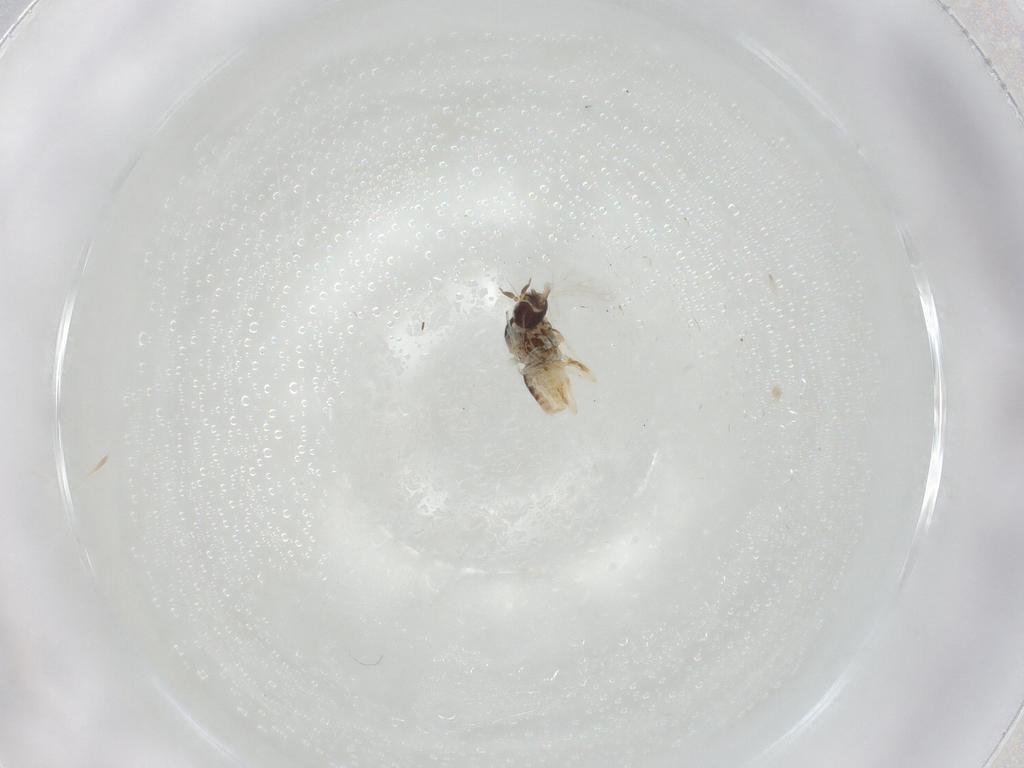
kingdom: Animalia
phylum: Arthropoda
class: Insecta
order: Diptera
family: Bombyliidae
